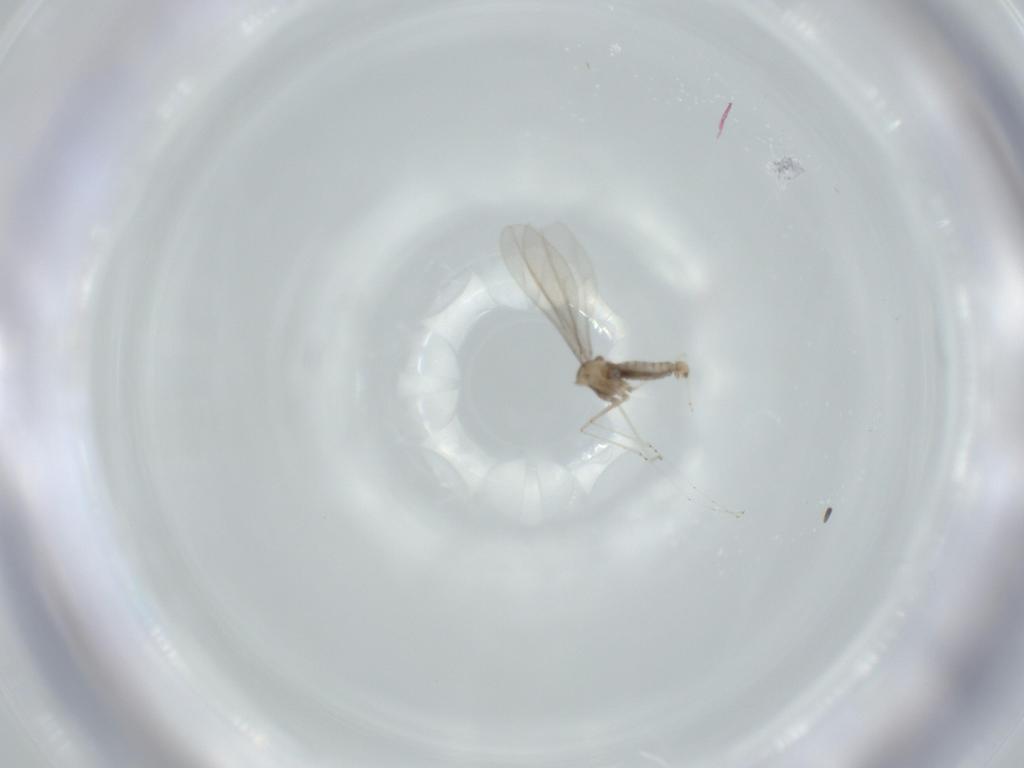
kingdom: Animalia
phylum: Arthropoda
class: Insecta
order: Diptera
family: Cecidomyiidae
